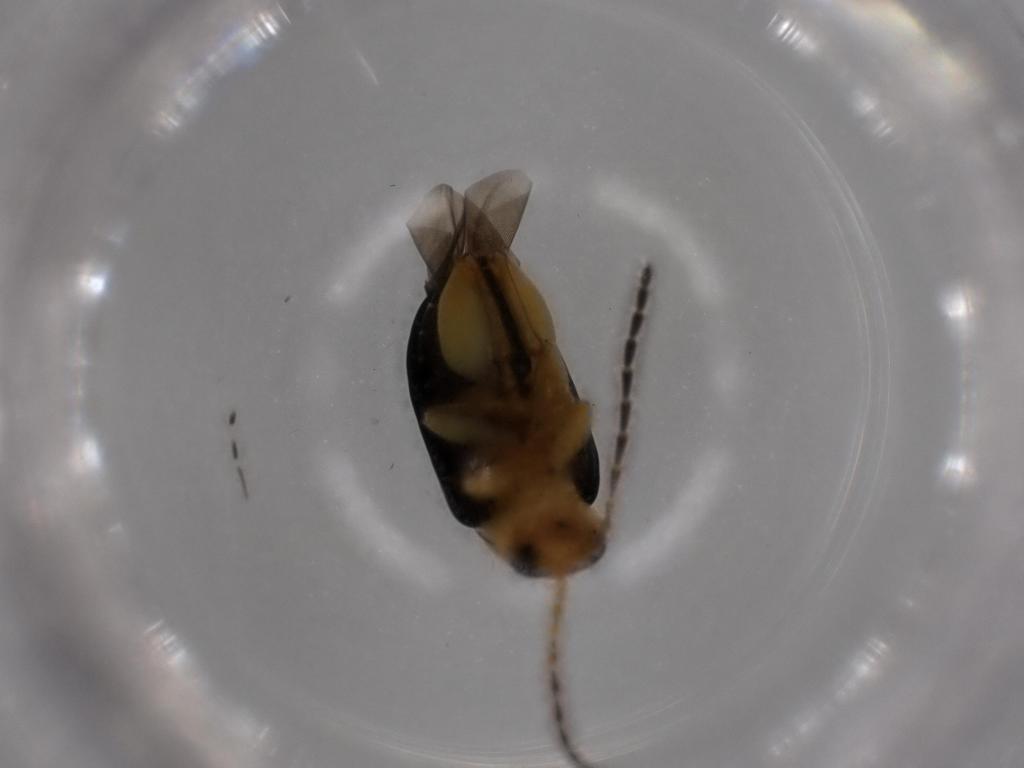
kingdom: Animalia
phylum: Arthropoda
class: Insecta
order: Coleoptera
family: Chrysomelidae
